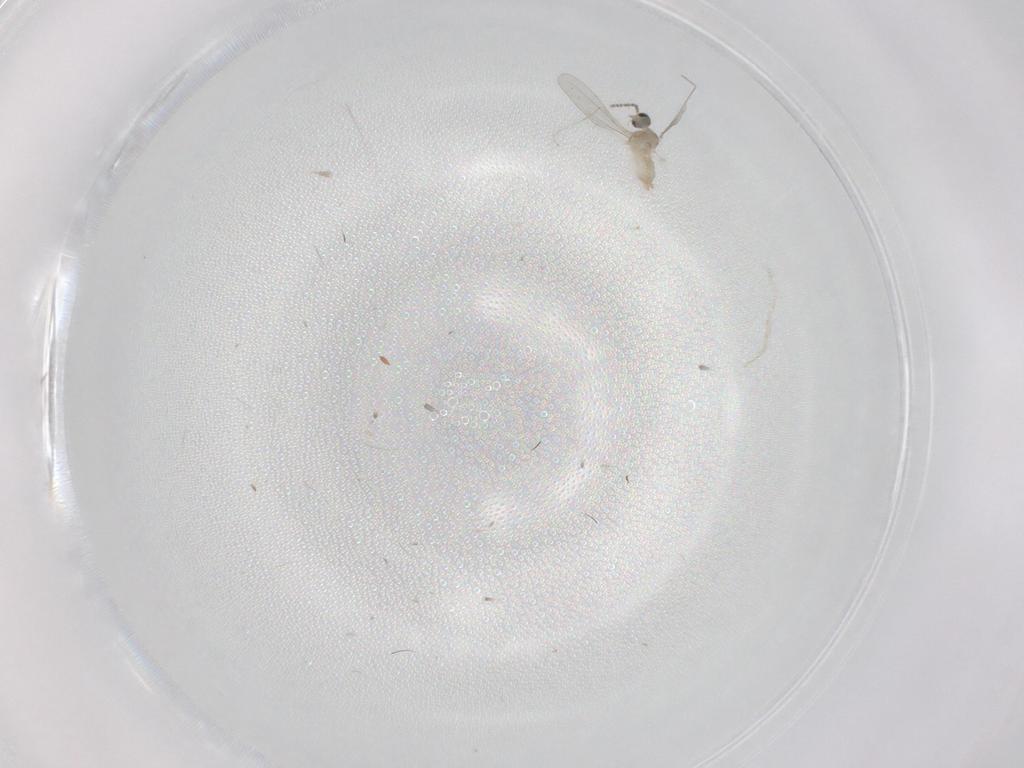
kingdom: Animalia
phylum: Arthropoda
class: Insecta
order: Diptera
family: Cecidomyiidae
